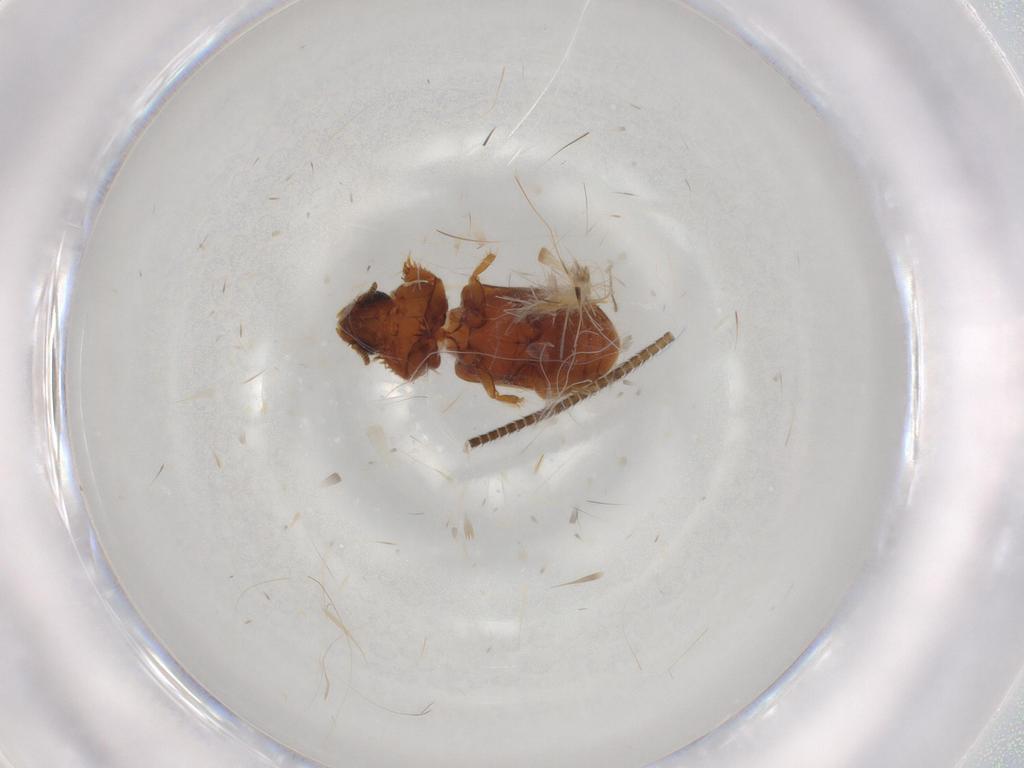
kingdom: Animalia
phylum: Arthropoda
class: Insecta
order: Coleoptera
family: Heteroceridae
